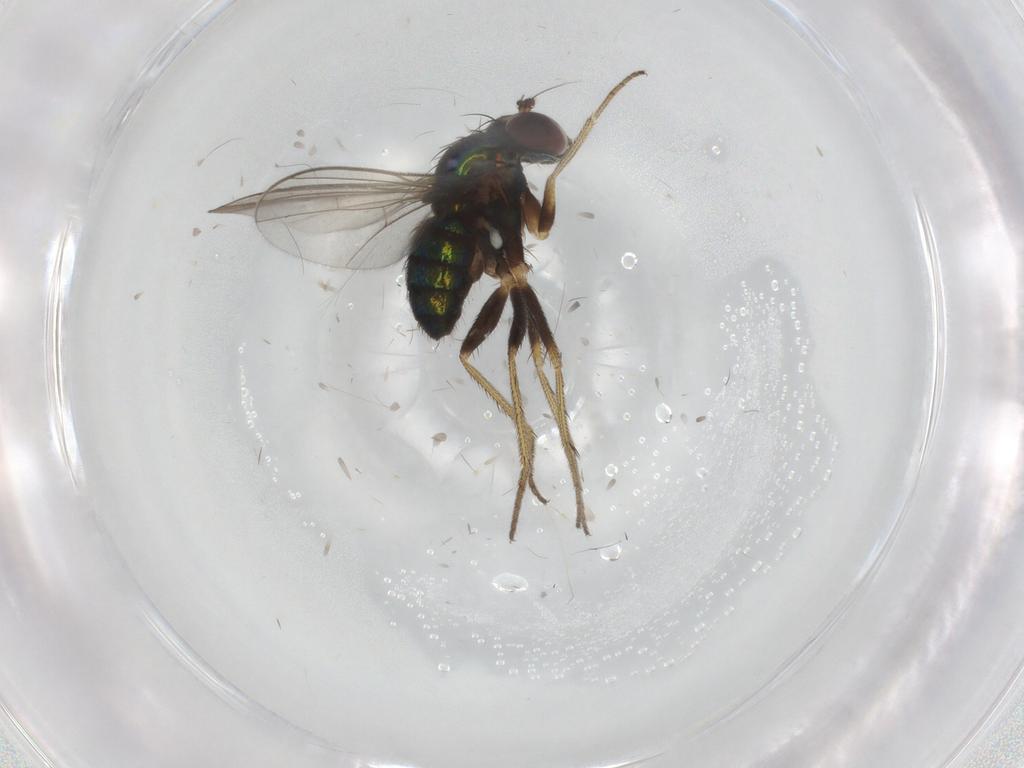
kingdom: Animalia
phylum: Arthropoda
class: Insecta
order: Diptera
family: Dolichopodidae
